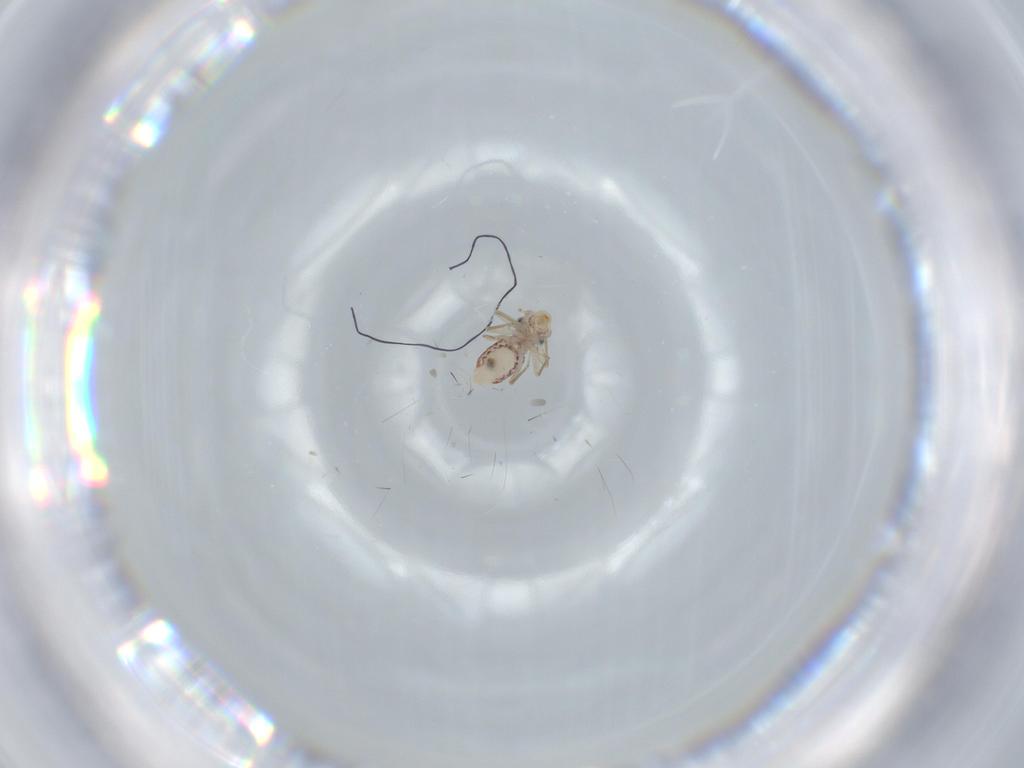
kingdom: Animalia
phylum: Arthropoda
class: Insecta
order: Psocodea
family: Lepidopsocidae
